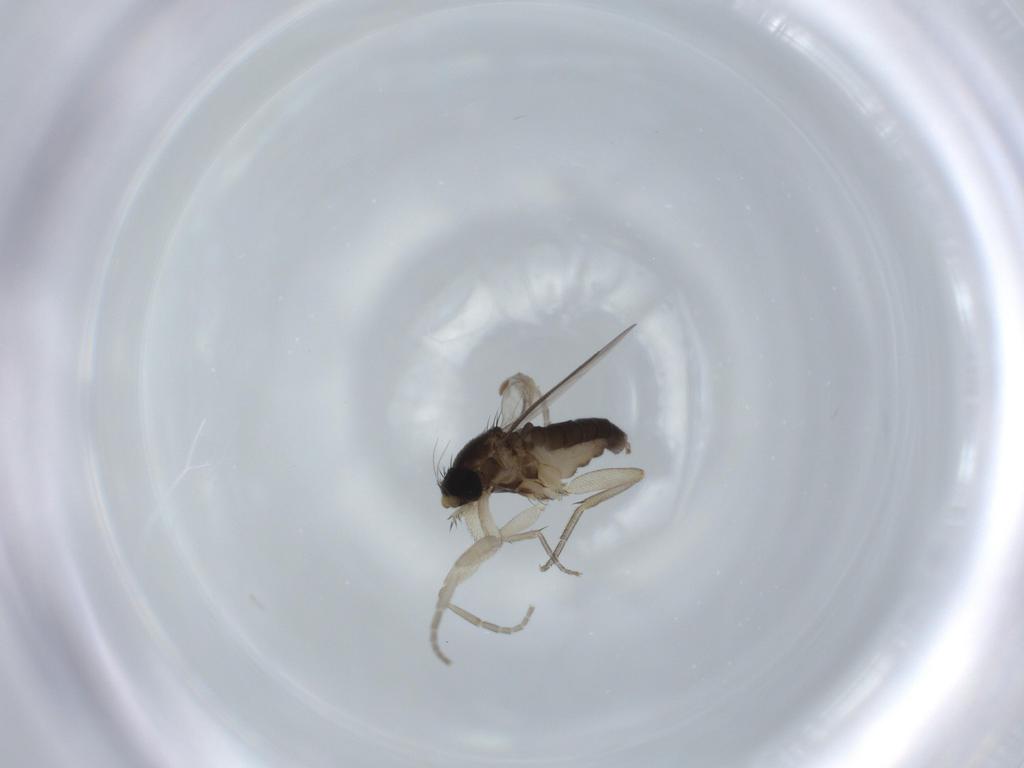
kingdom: Animalia
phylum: Arthropoda
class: Insecta
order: Diptera
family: Phoridae
